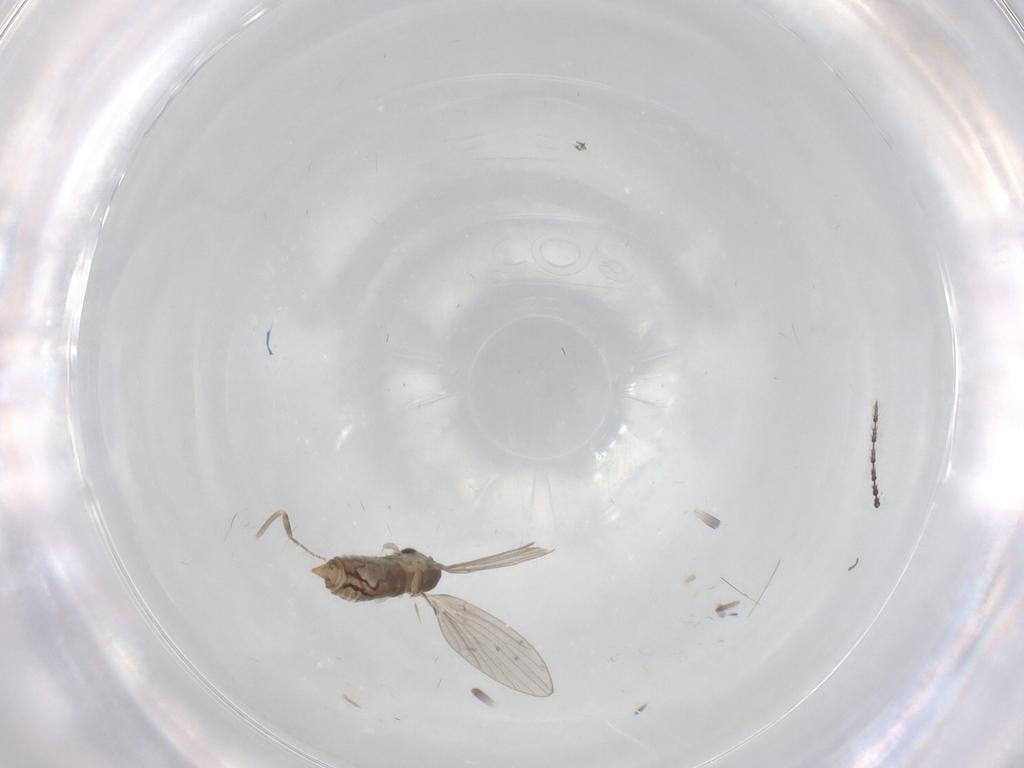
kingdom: Animalia
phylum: Arthropoda
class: Insecta
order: Diptera
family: Ceratopogonidae
